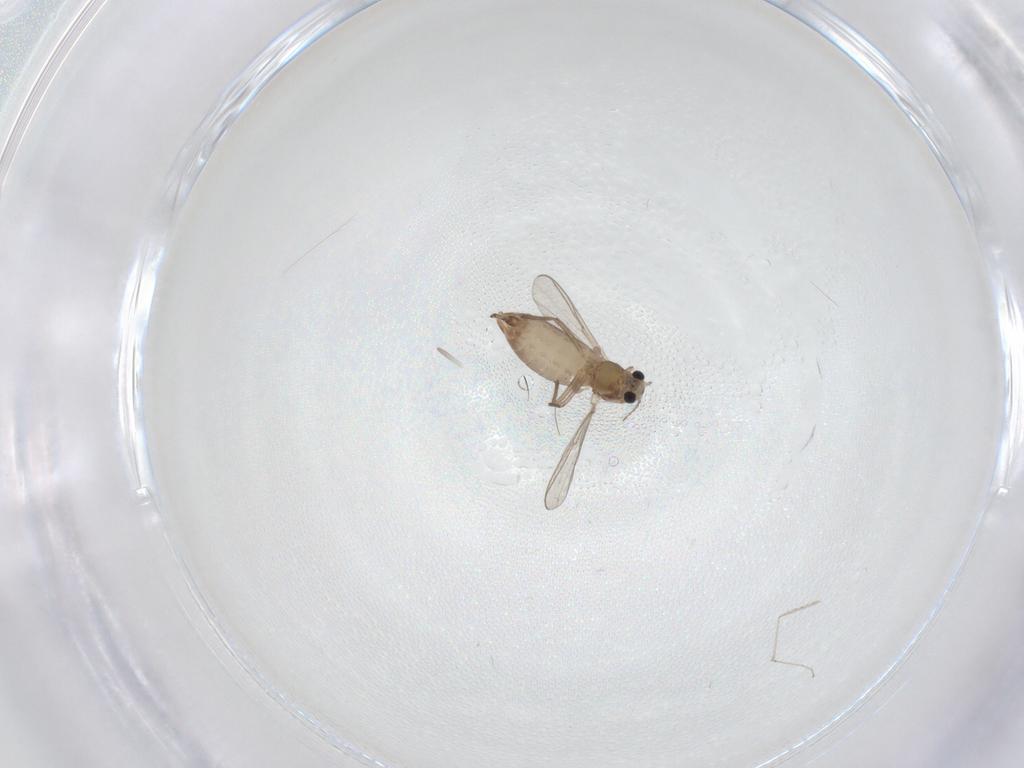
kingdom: Animalia
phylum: Arthropoda
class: Insecta
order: Diptera
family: Chironomidae
